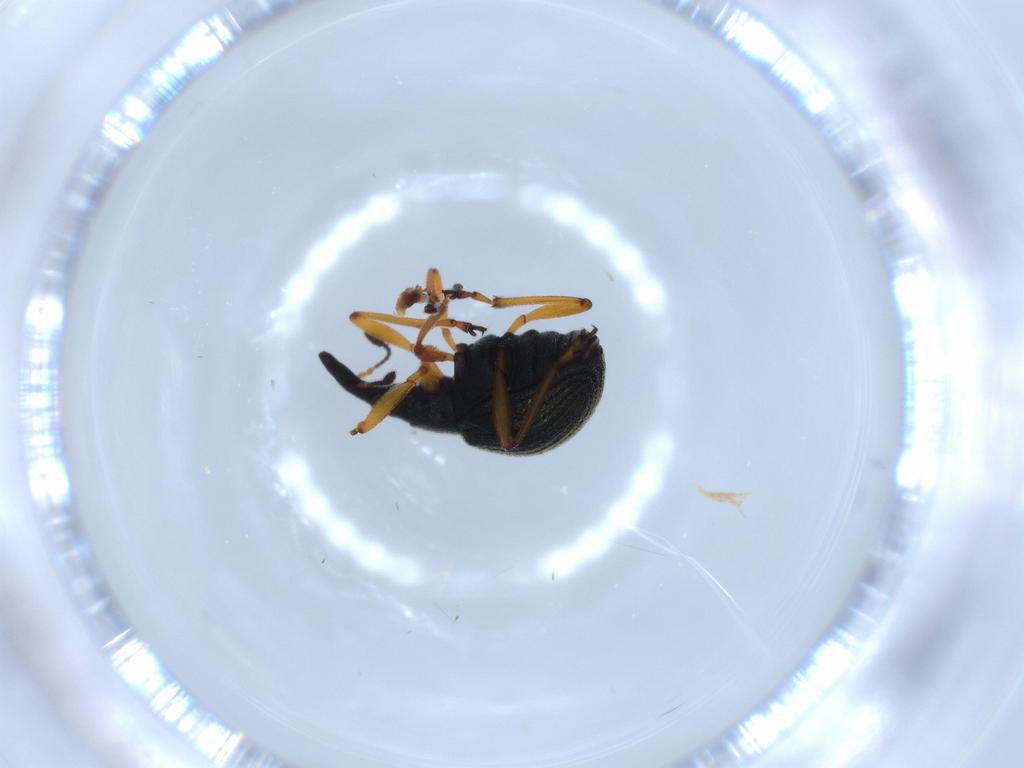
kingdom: Animalia
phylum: Arthropoda
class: Insecta
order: Coleoptera
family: Brentidae
